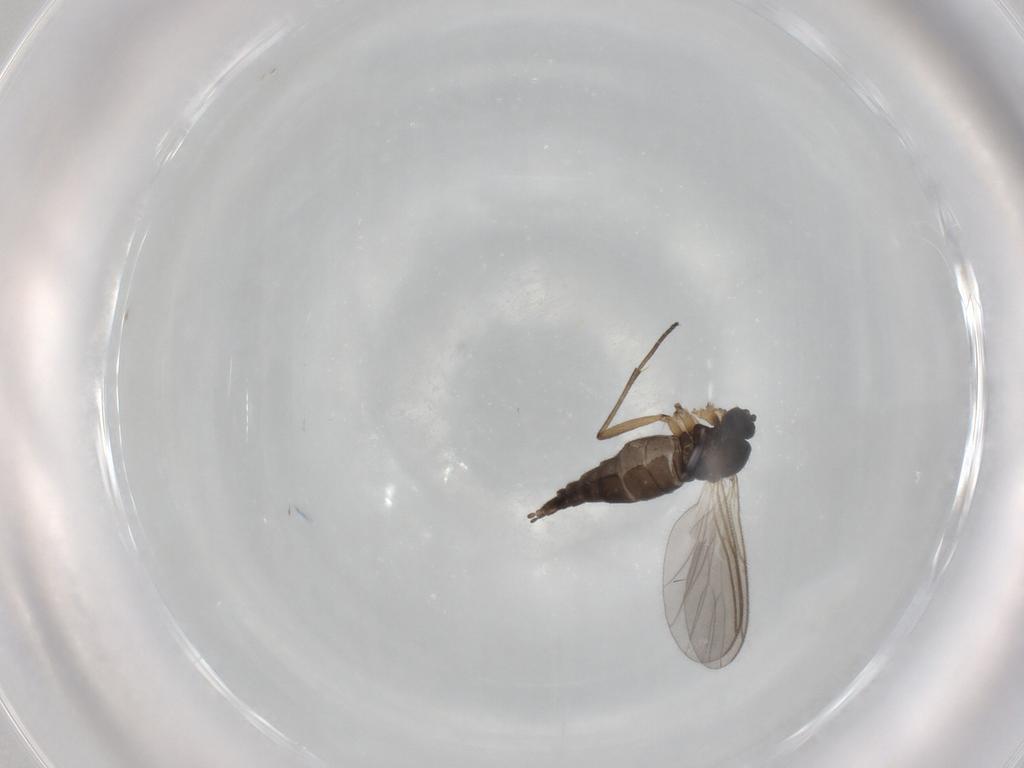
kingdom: Animalia
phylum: Arthropoda
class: Insecta
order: Diptera
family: Sciaridae
